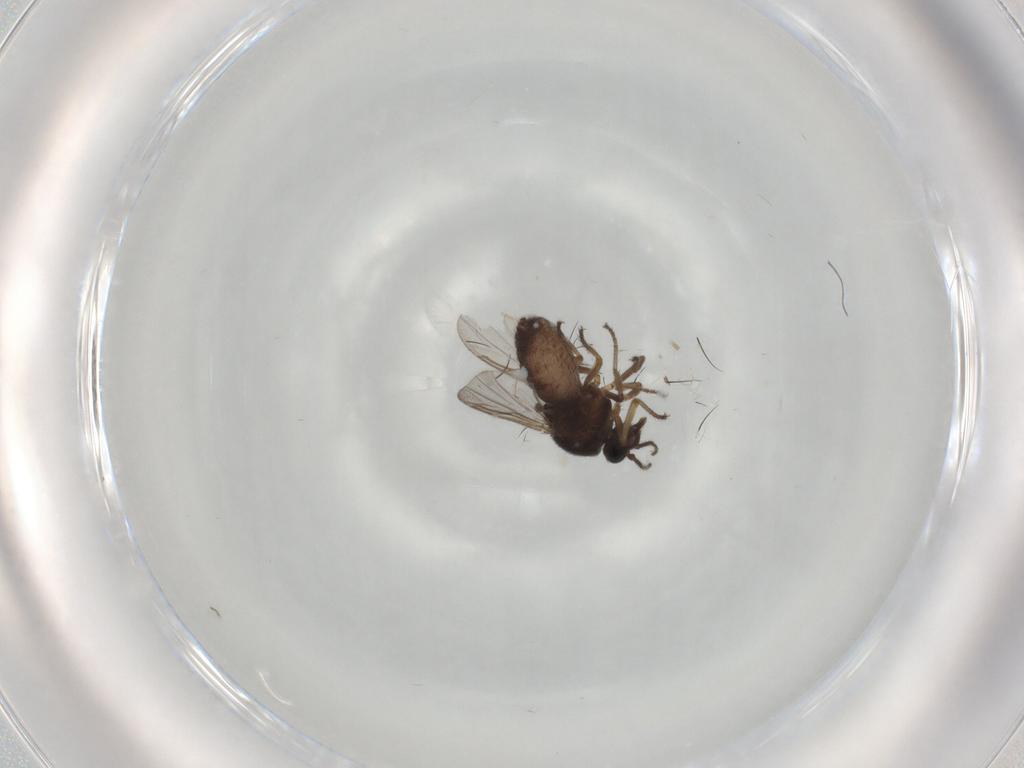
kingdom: Animalia
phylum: Arthropoda
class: Insecta
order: Diptera
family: Ceratopogonidae
